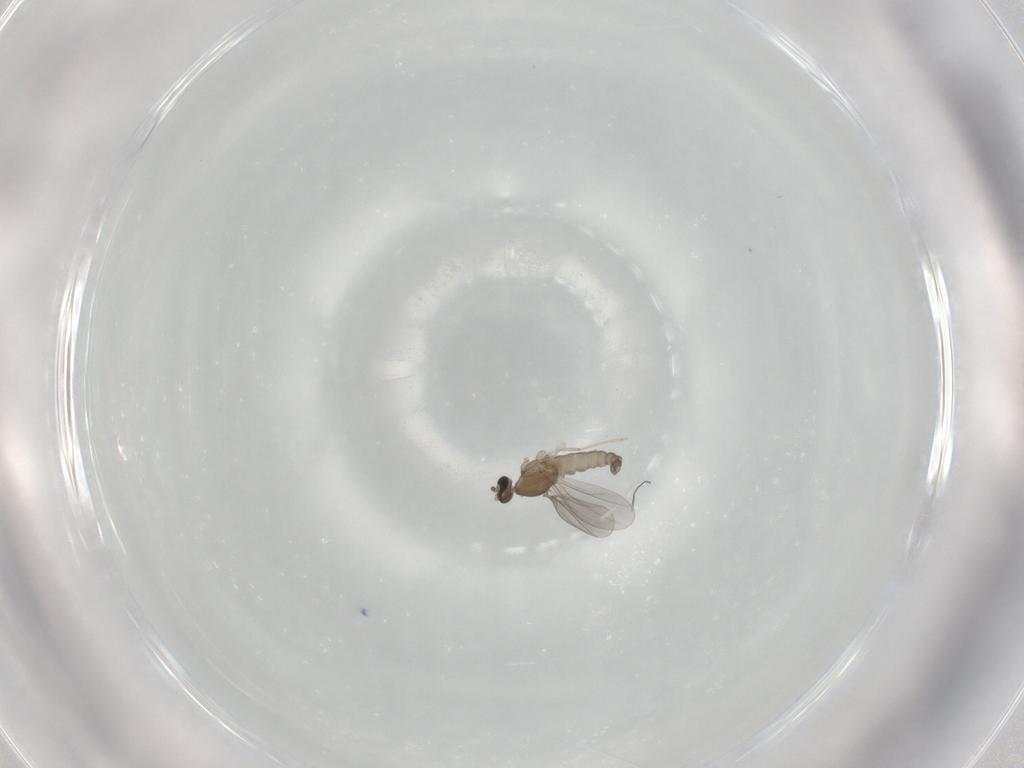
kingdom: Animalia
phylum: Arthropoda
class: Insecta
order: Diptera
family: Cecidomyiidae
